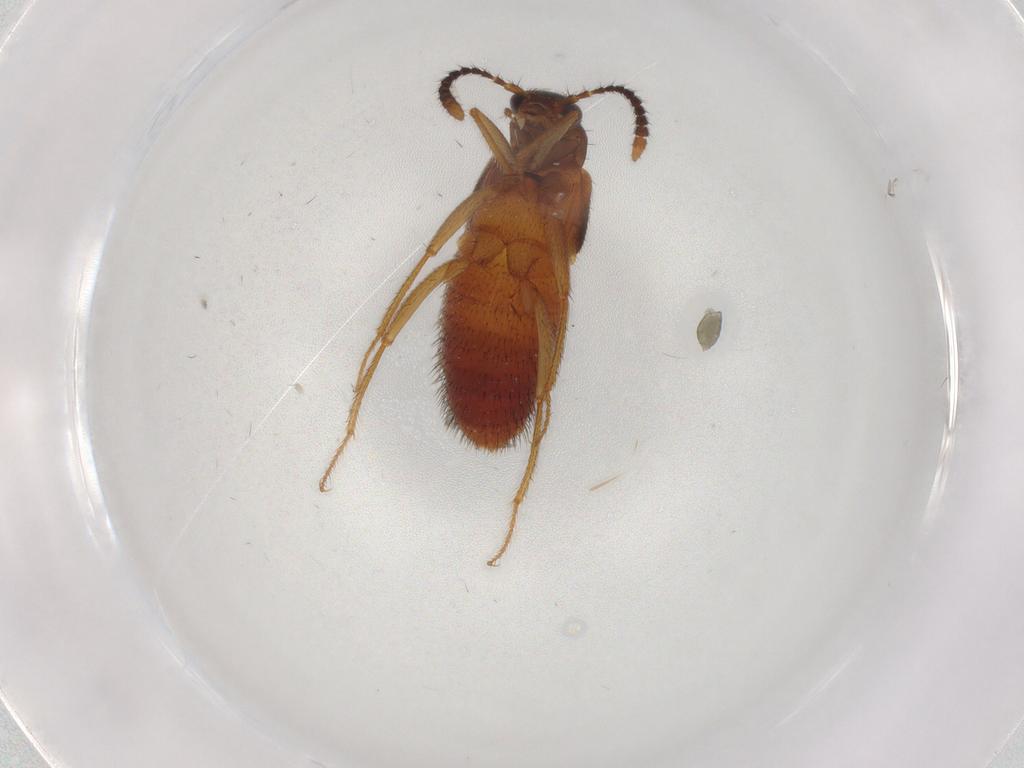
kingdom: Animalia
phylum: Arthropoda
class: Insecta
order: Coleoptera
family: Staphylinidae
